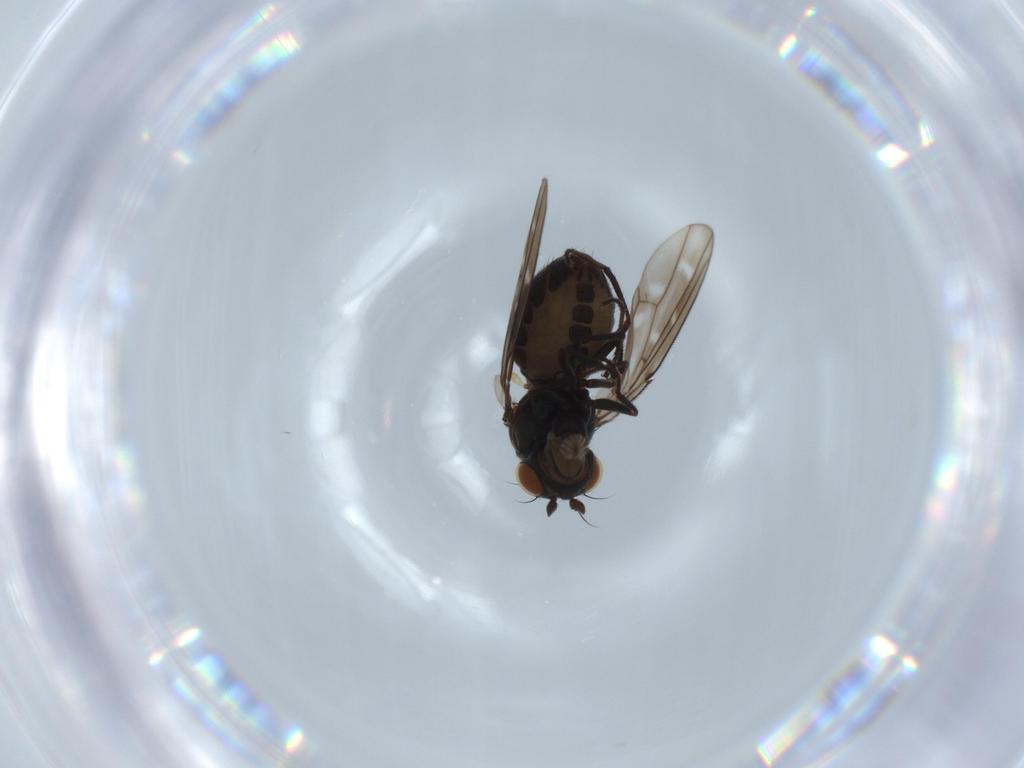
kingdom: Animalia
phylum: Arthropoda
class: Insecta
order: Diptera
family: Ephydridae
